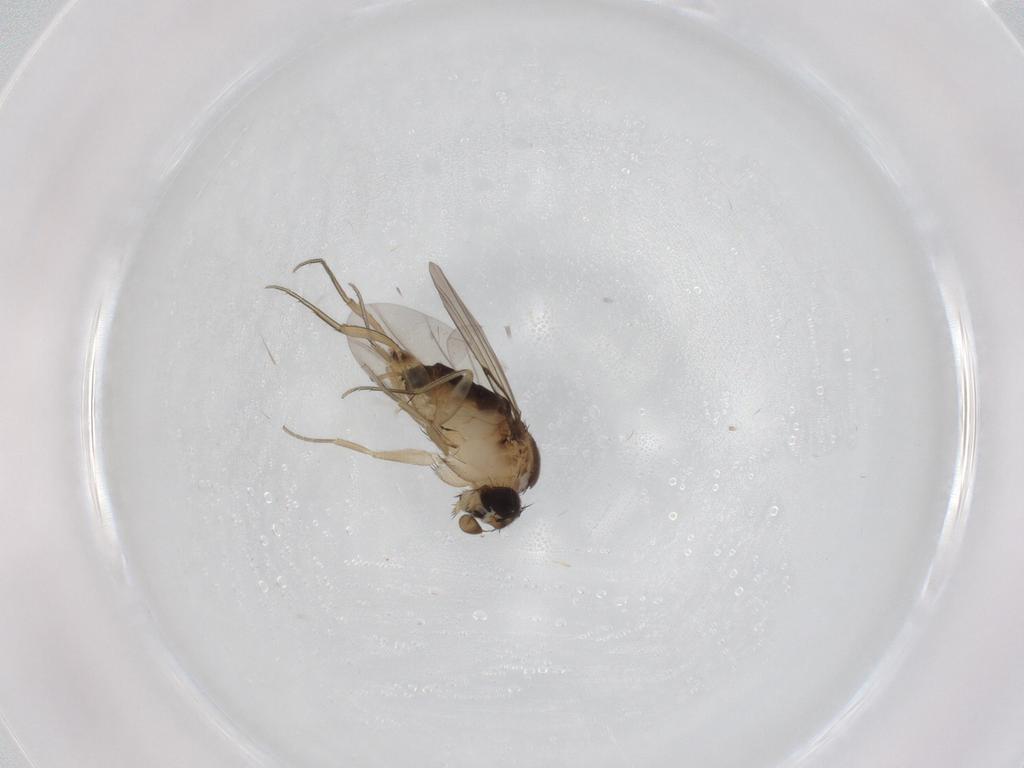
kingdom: Animalia
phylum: Arthropoda
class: Insecta
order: Diptera
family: Phoridae
